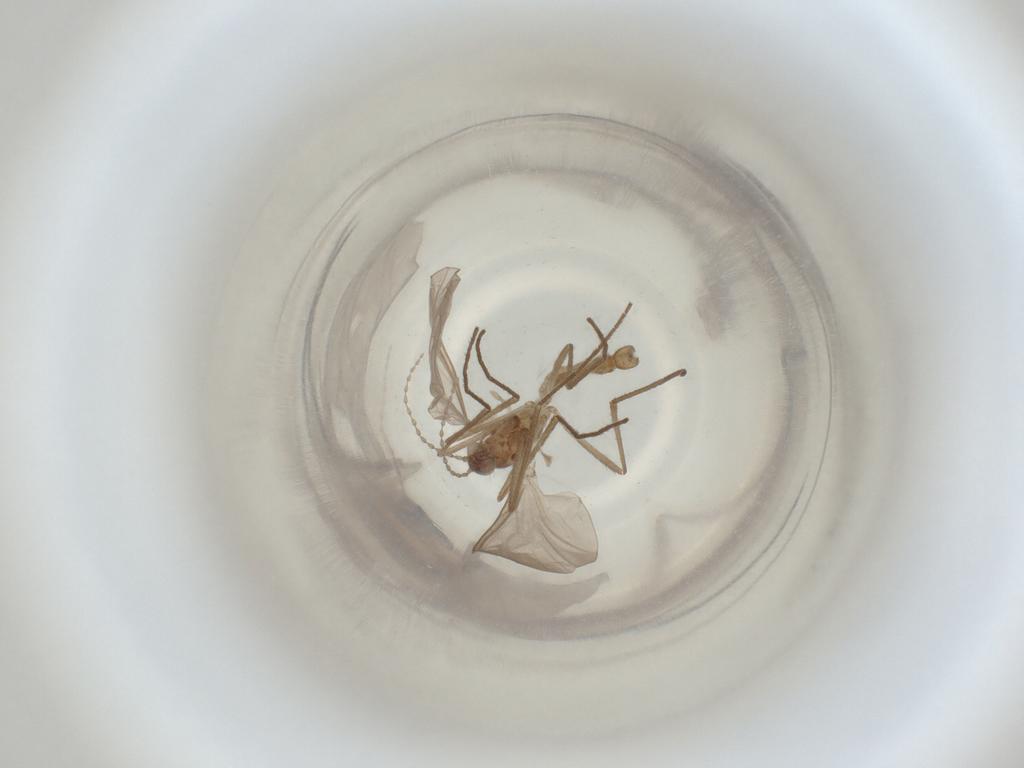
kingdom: Animalia
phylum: Arthropoda
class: Insecta
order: Diptera
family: Cecidomyiidae
